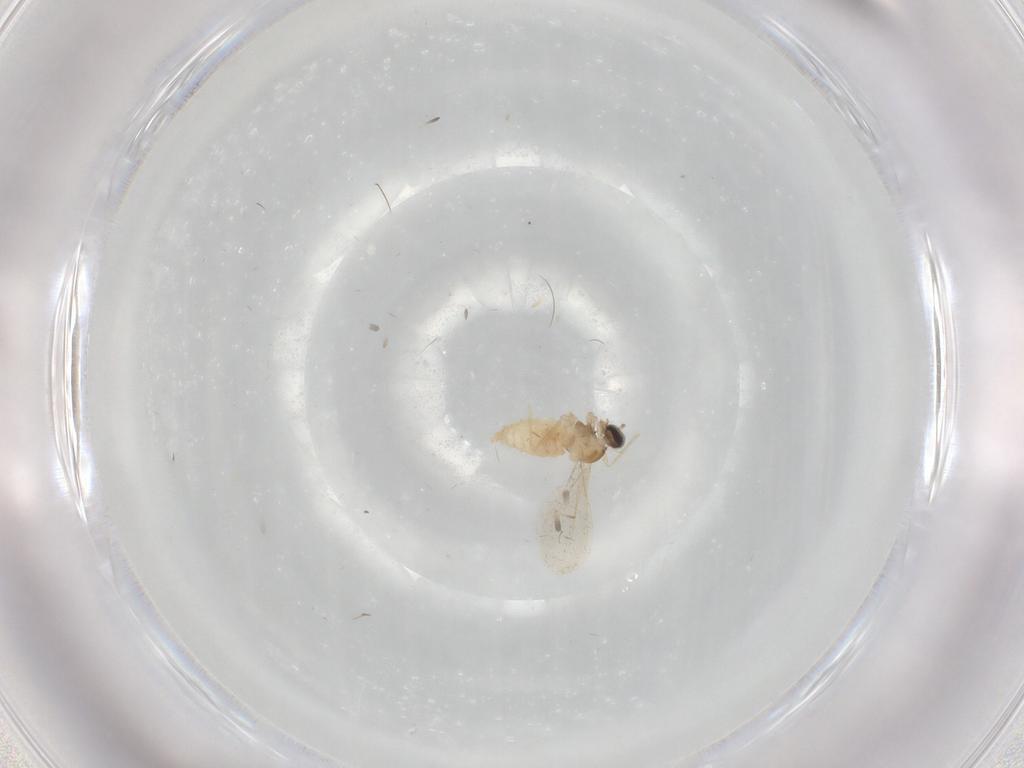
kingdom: Animalia
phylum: Arthropoda
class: Insecta
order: Diptera
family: Cecidomyiidae
